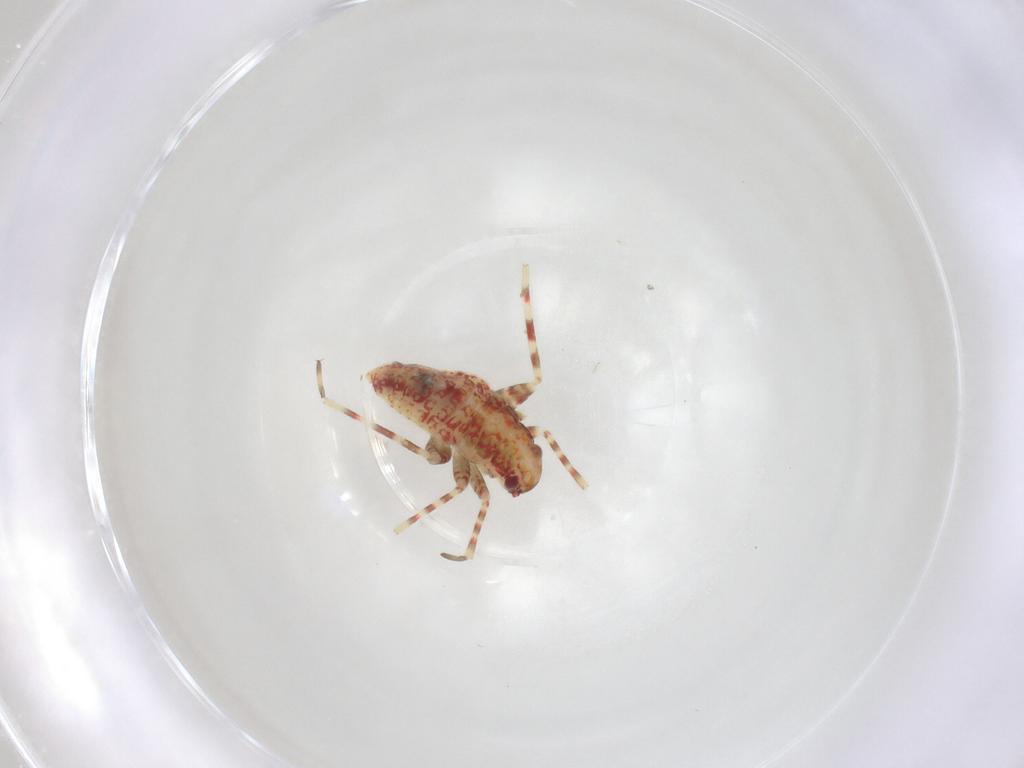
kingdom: Animalia
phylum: Arthropoda
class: Insecta
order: Hemiptera
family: Miridae
